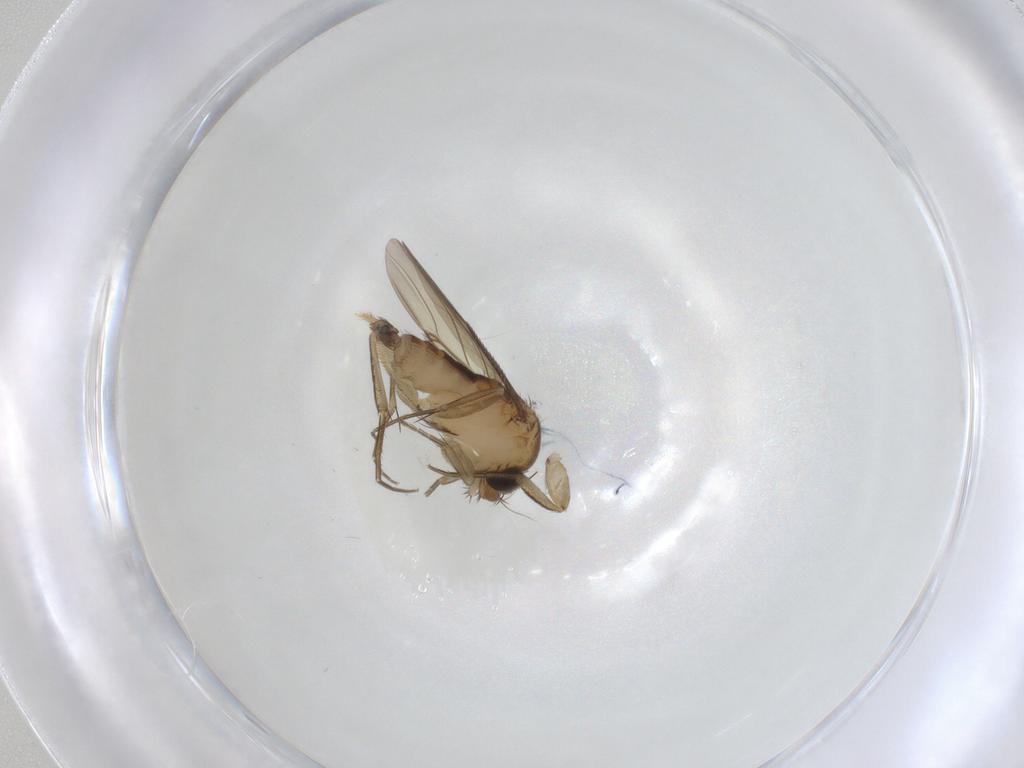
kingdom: Animalia
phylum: Arthropoda
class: Insecta
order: Diptera
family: Phoridae
